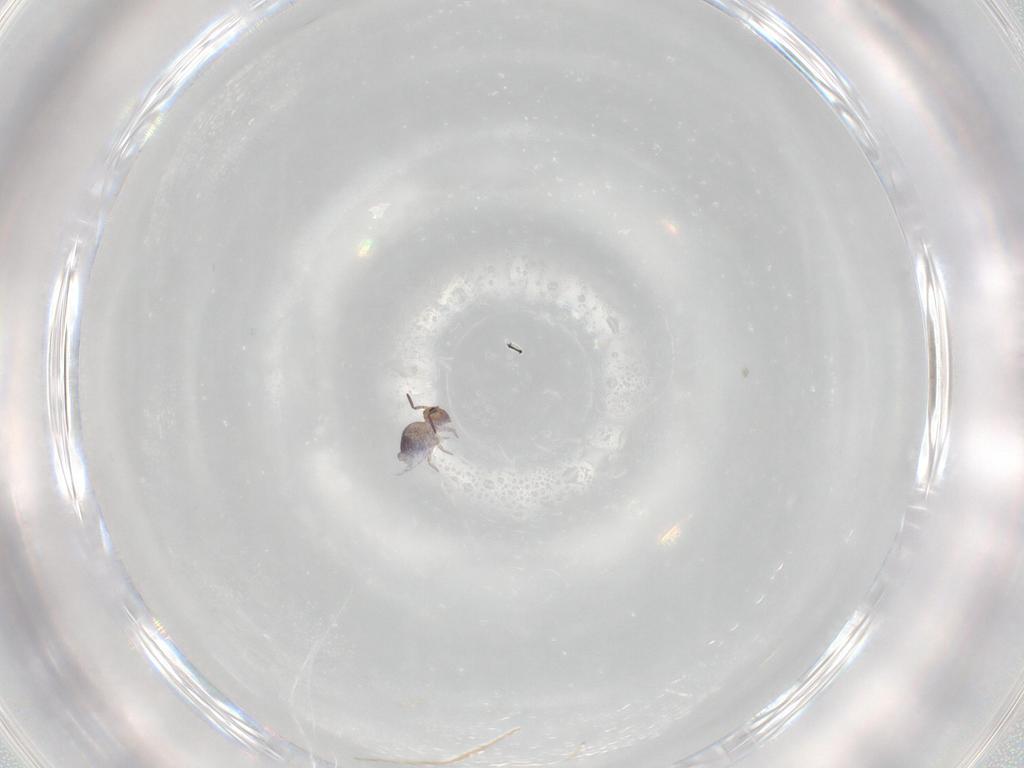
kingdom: Animalia
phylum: Arthropoda
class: Collembola
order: Symphypleona
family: Bourletiellidae
